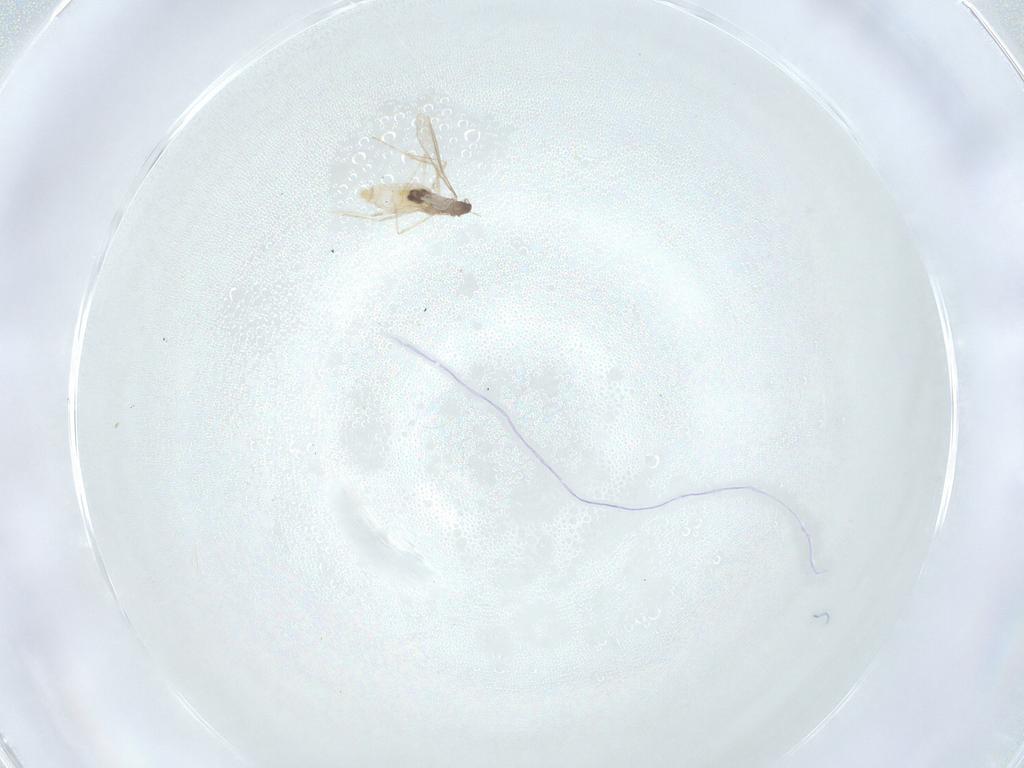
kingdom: Animalia
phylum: Arthropoda
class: Insecta
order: Diptera
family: Cecidomyiidae
